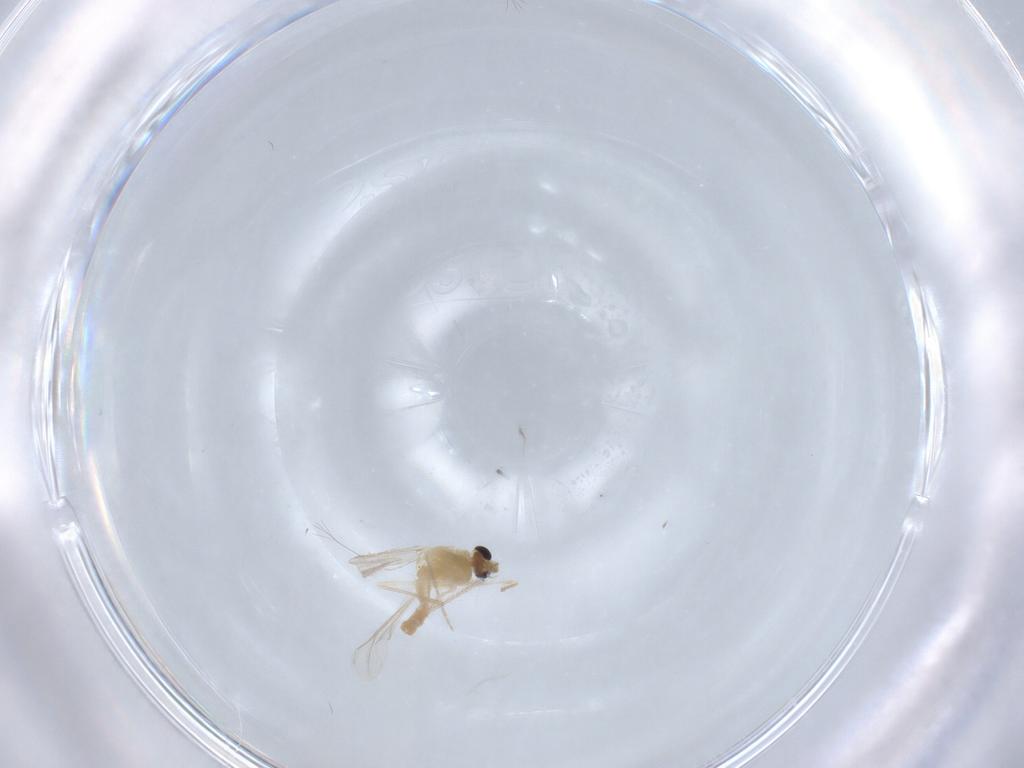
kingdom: Animalia
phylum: Arthropoda
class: Insecta
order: Diptera
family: Chironomidae
